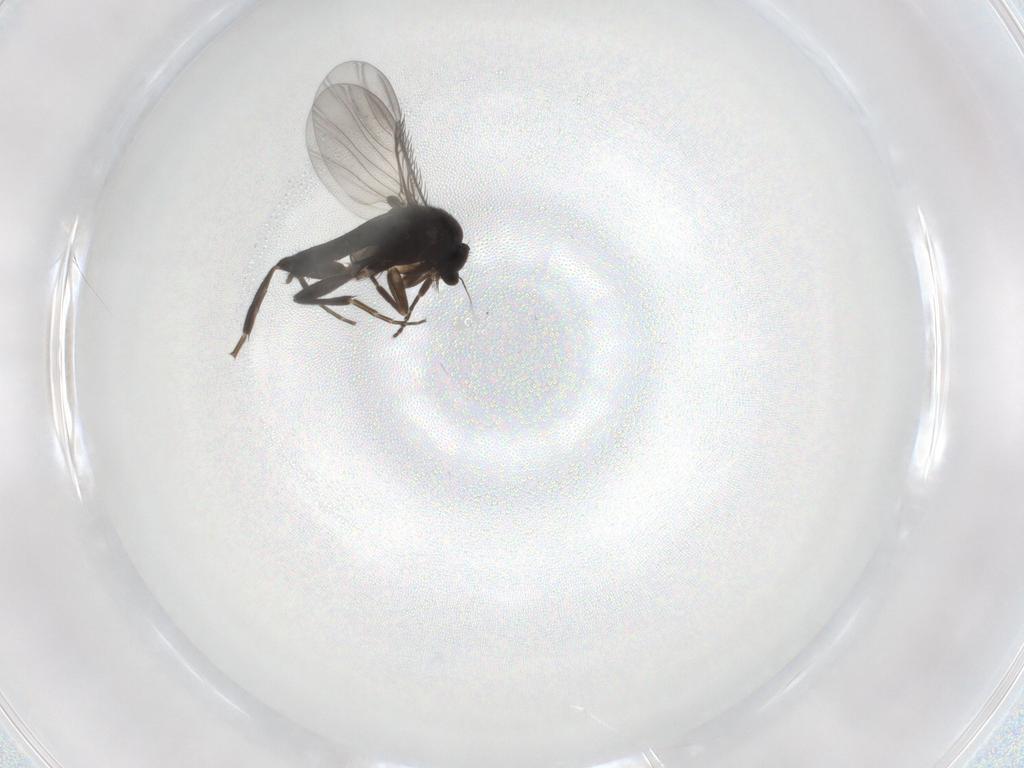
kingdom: Animalia
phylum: Arthropoda
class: Insecta
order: Diptera
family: Phoridae
